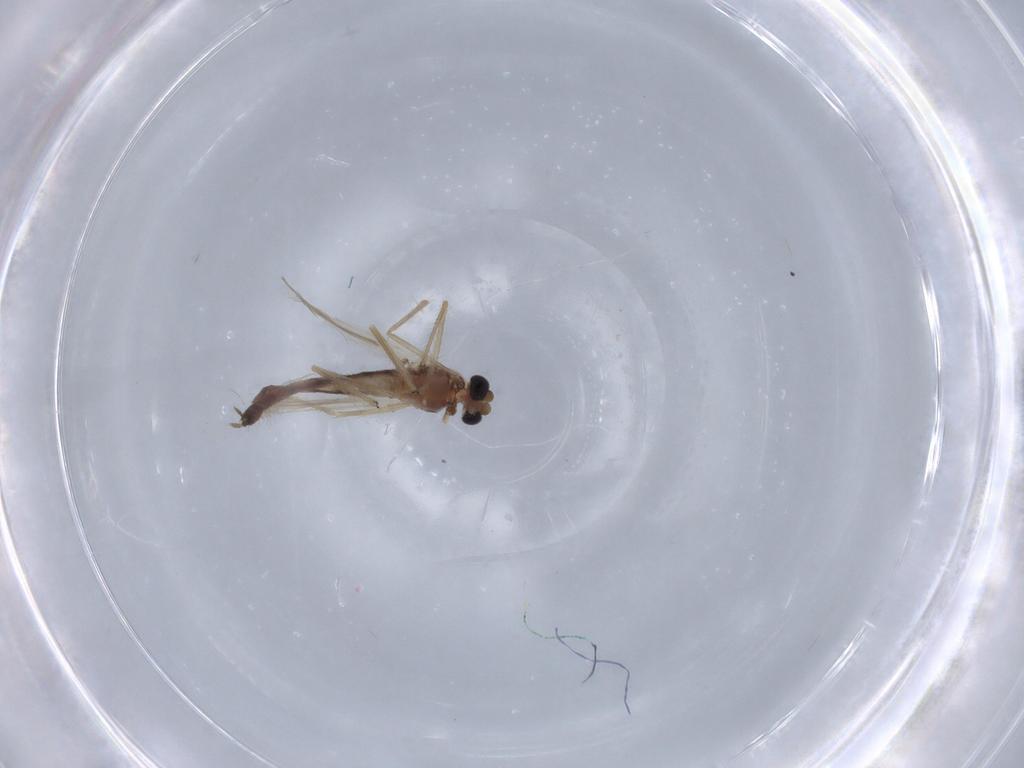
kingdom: Animalia
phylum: Arthropoda
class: Insecta
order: Diptera
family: Chironomidae
